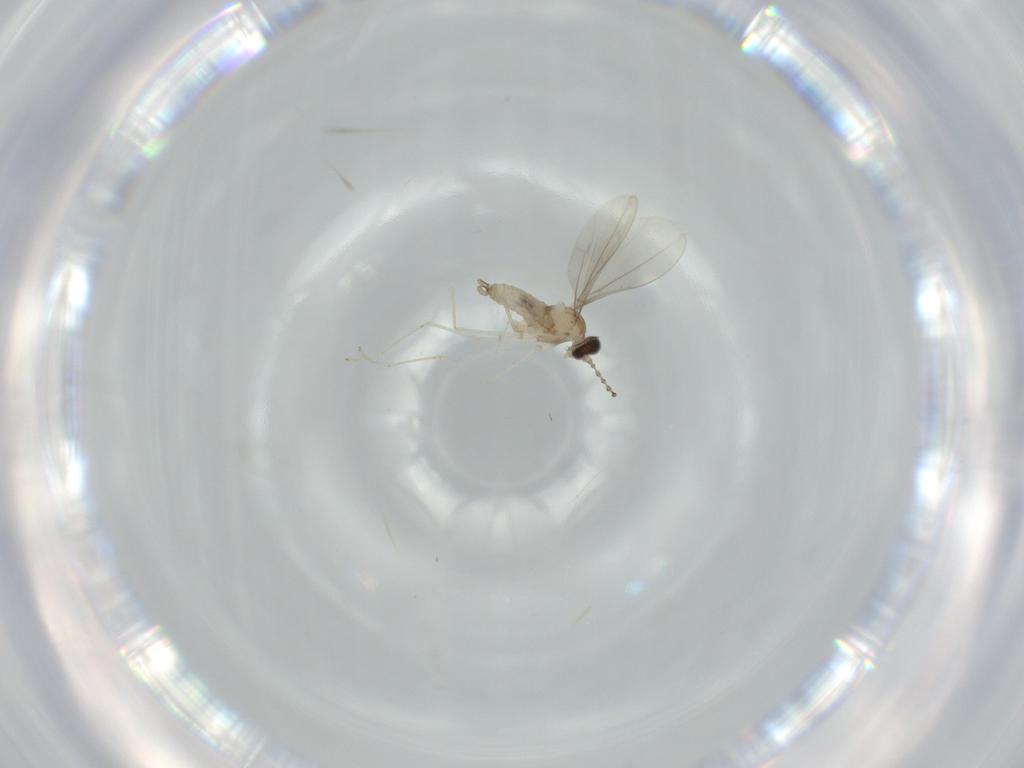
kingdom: Animalia
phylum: Arthropoda
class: Insecta
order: Diptera
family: Cecidomyiidae
